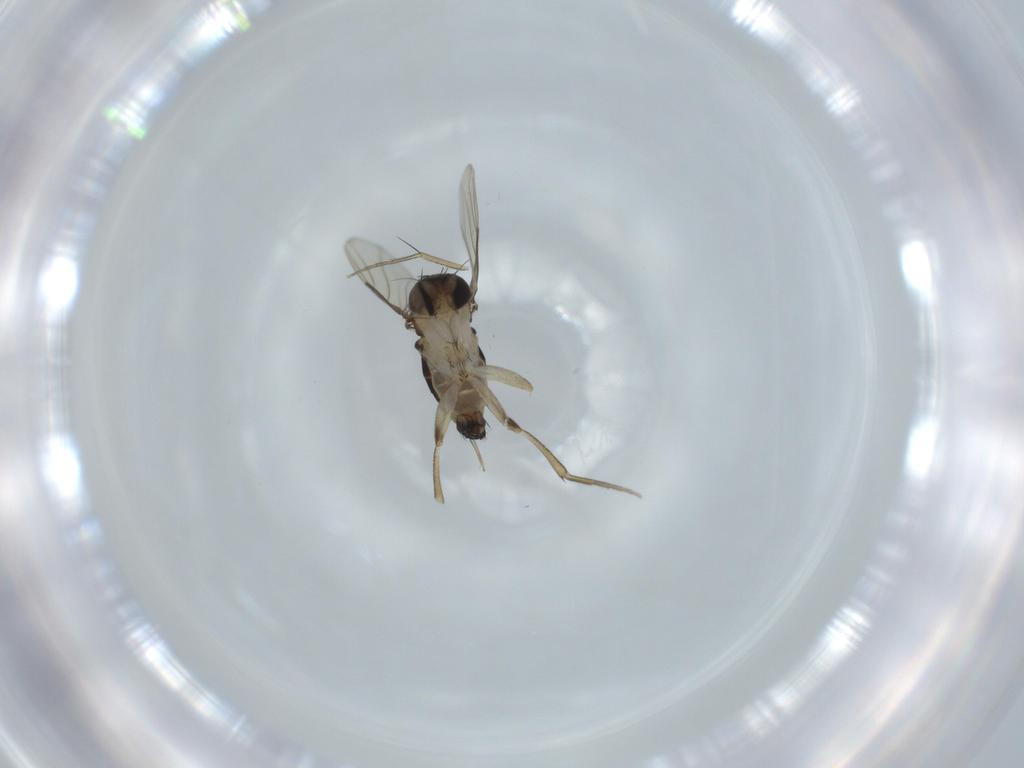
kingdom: Animalia
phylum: Arthropoda
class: Insecta
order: Diptera
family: Phoridae
